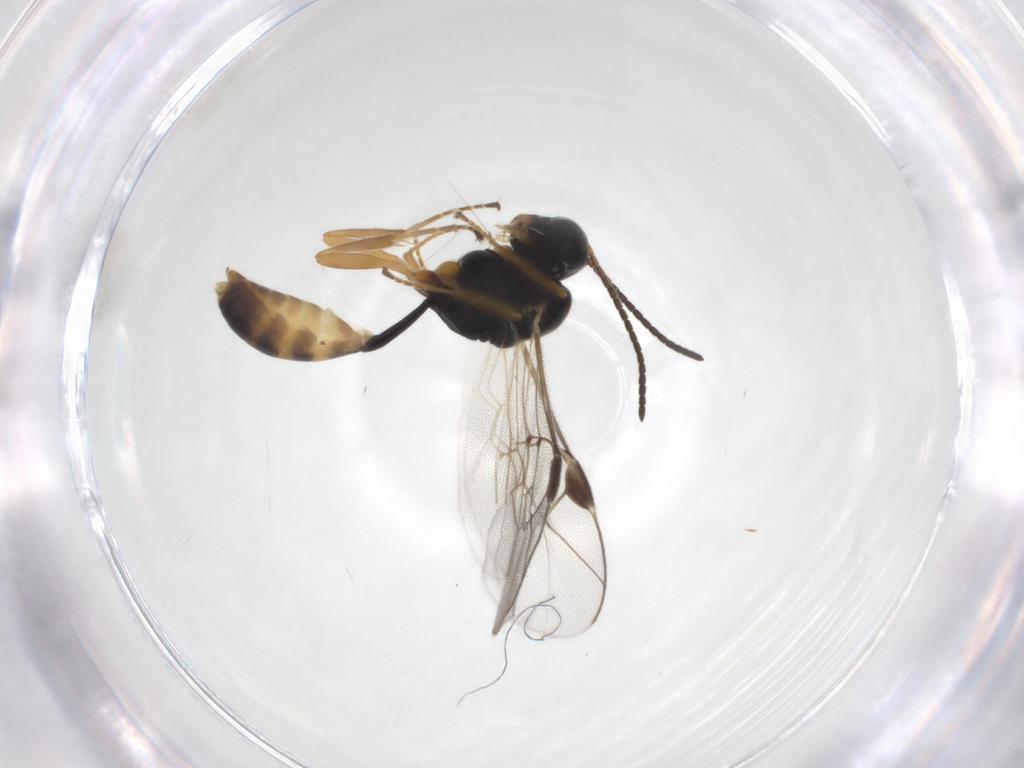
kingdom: Animalia
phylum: Arthropoda
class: Insecta
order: Hymenoptera
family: Ichneumonidae
